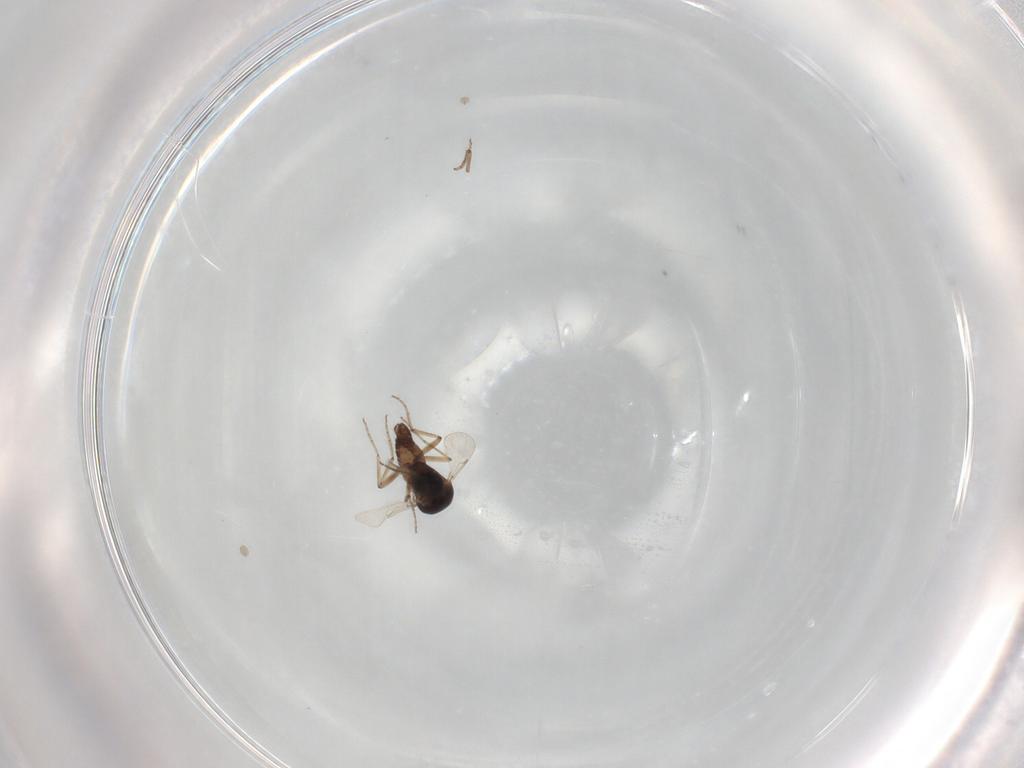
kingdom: Animalia
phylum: Arthropoda
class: Insecta
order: Diptera
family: Ceratopogonidae
